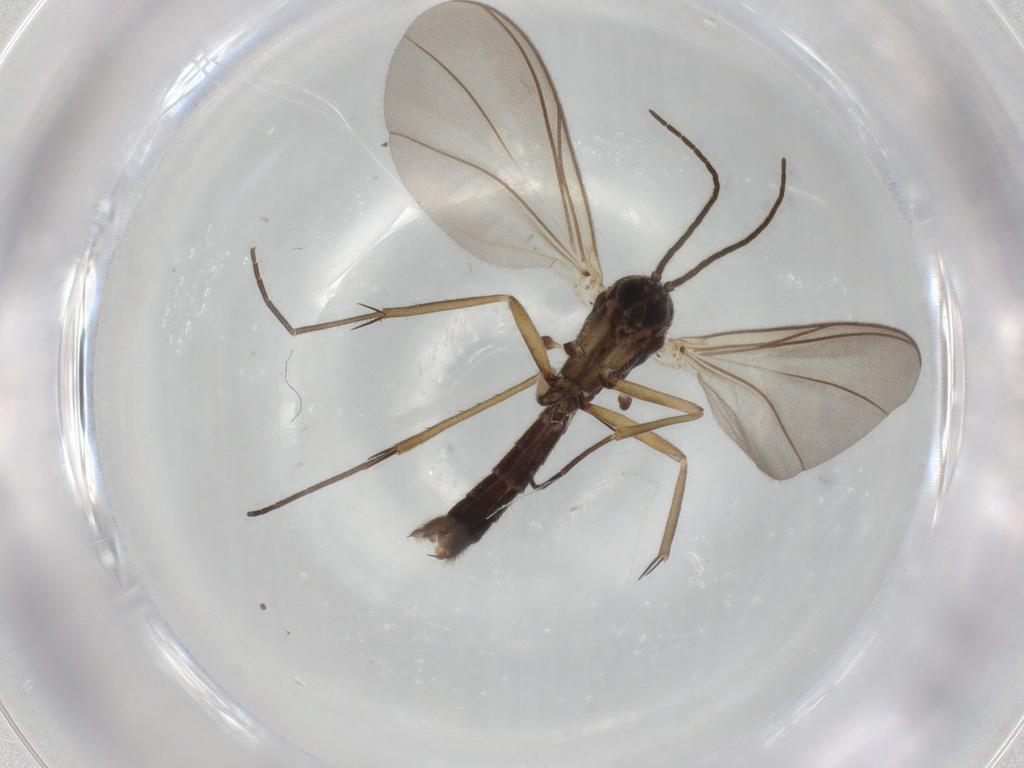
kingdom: Animalia
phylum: Arthropoda
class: Insecta
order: Diptera
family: Mycetophilidae
